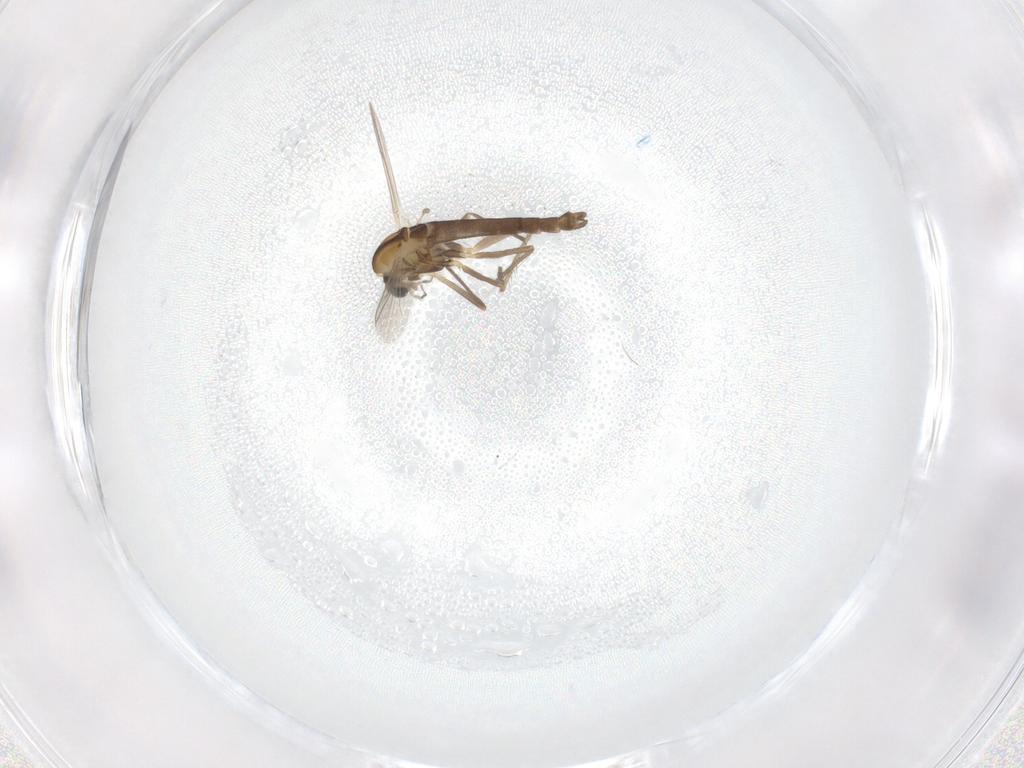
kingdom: Animalia
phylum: Arthropoda
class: Insecta
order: Diptera
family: Chironomidae
